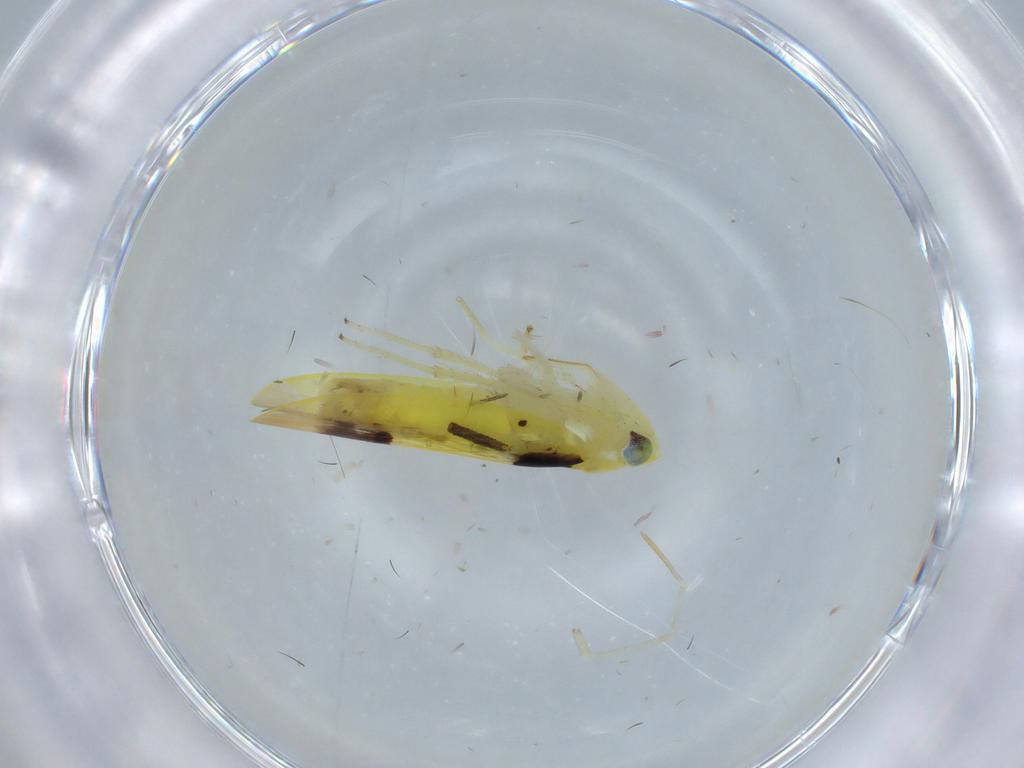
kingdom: Animalia
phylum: Arthropoda
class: Insecta
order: Hemiptera
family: Cicadellidae
